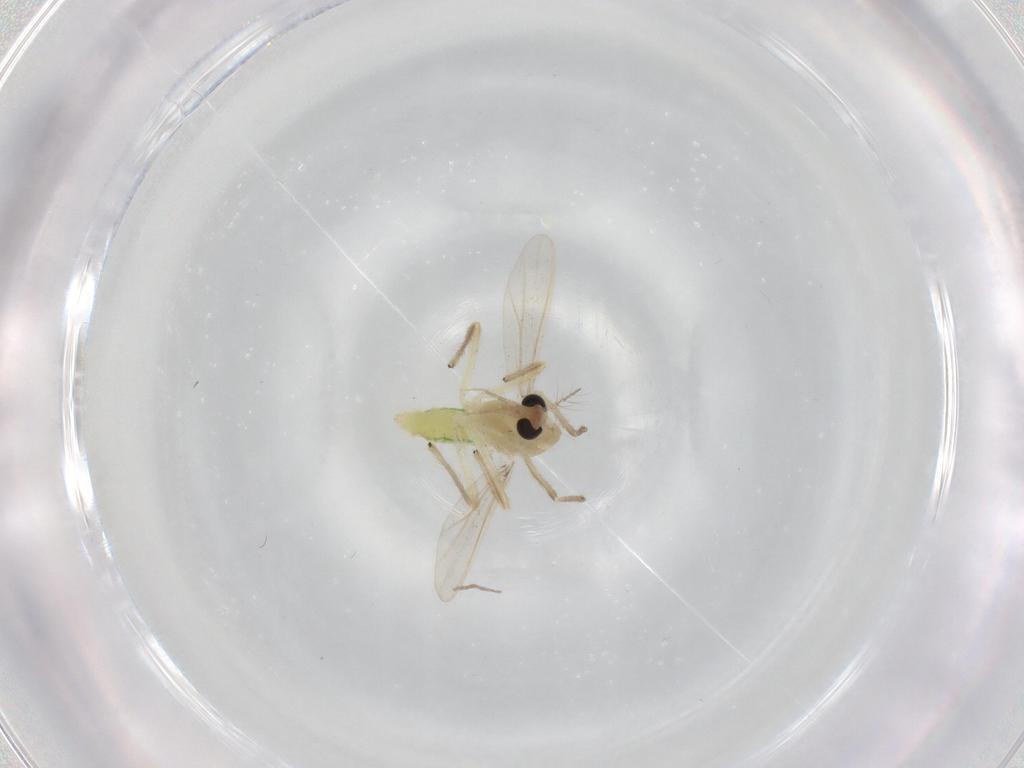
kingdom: Animalia
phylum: Arthropoda
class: Insecta
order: Diptera
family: Chironomidae
